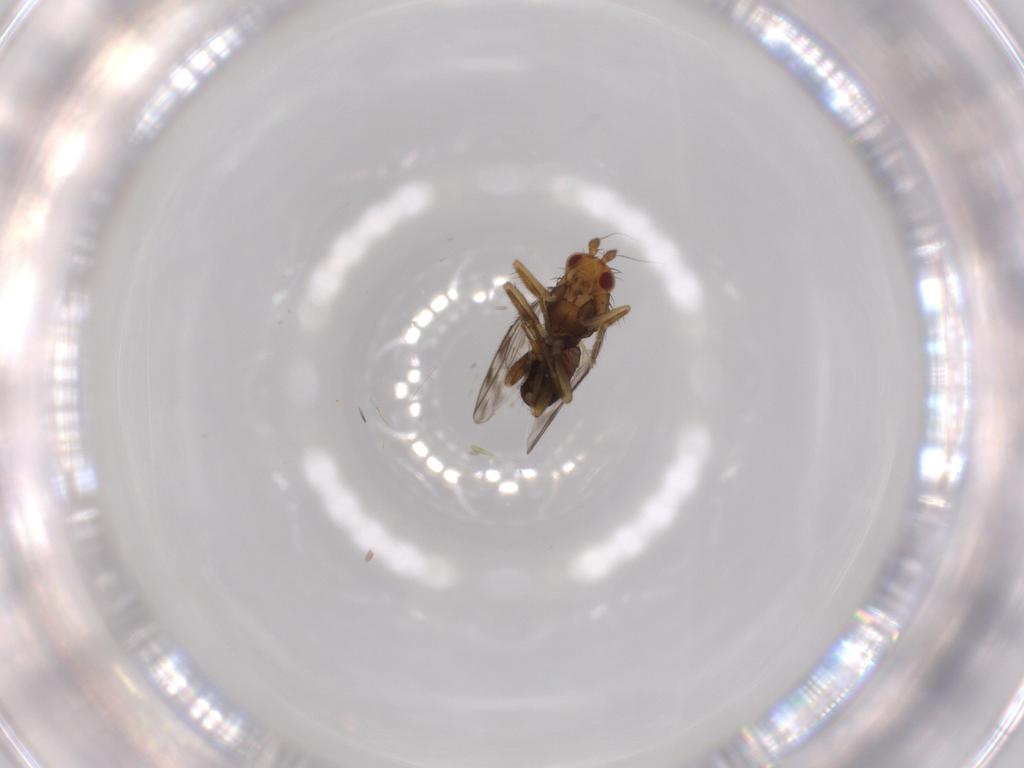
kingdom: Animalia
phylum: Arthropoda
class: Insecta
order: Diptera
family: Sphaeroceridae
